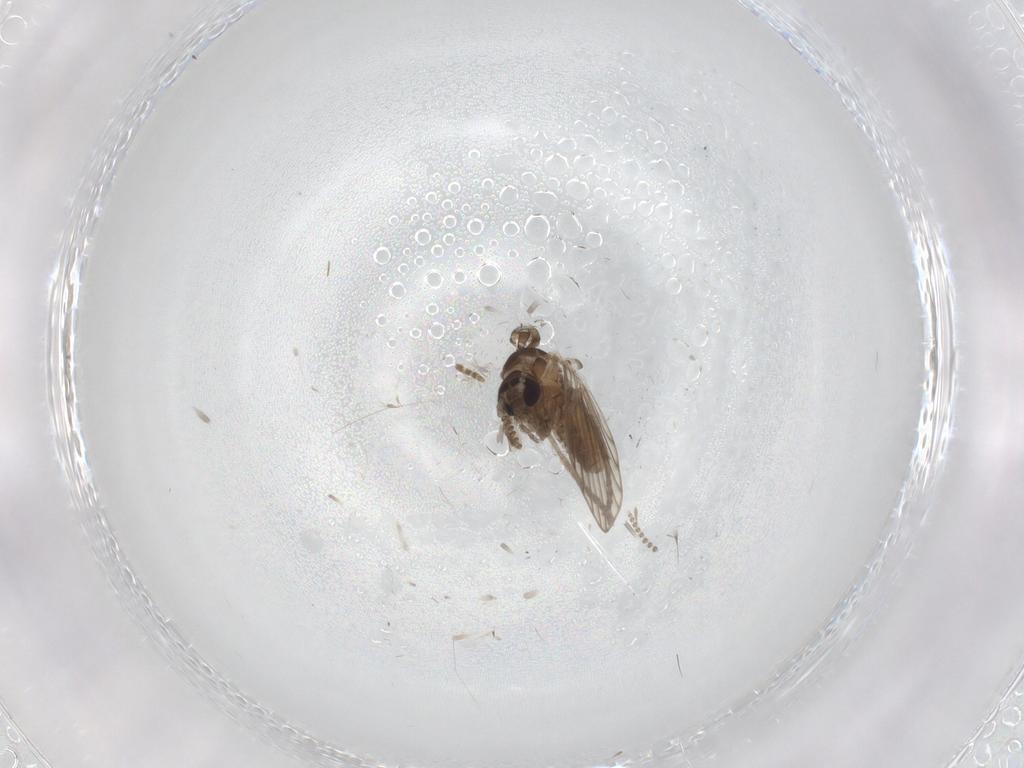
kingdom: Animalia
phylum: Arthropoda
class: Insecta
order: Diptera
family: Psychodidae
